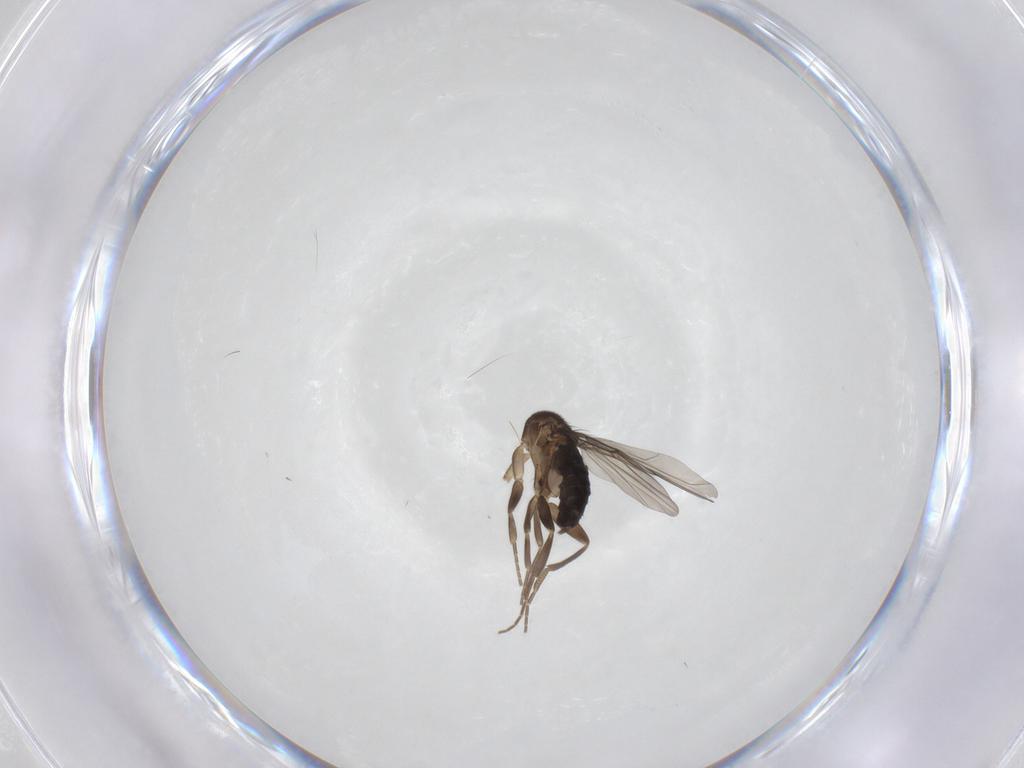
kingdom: Animalia
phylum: Arthropoda
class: Insecta
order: Diptera
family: Phoridae
